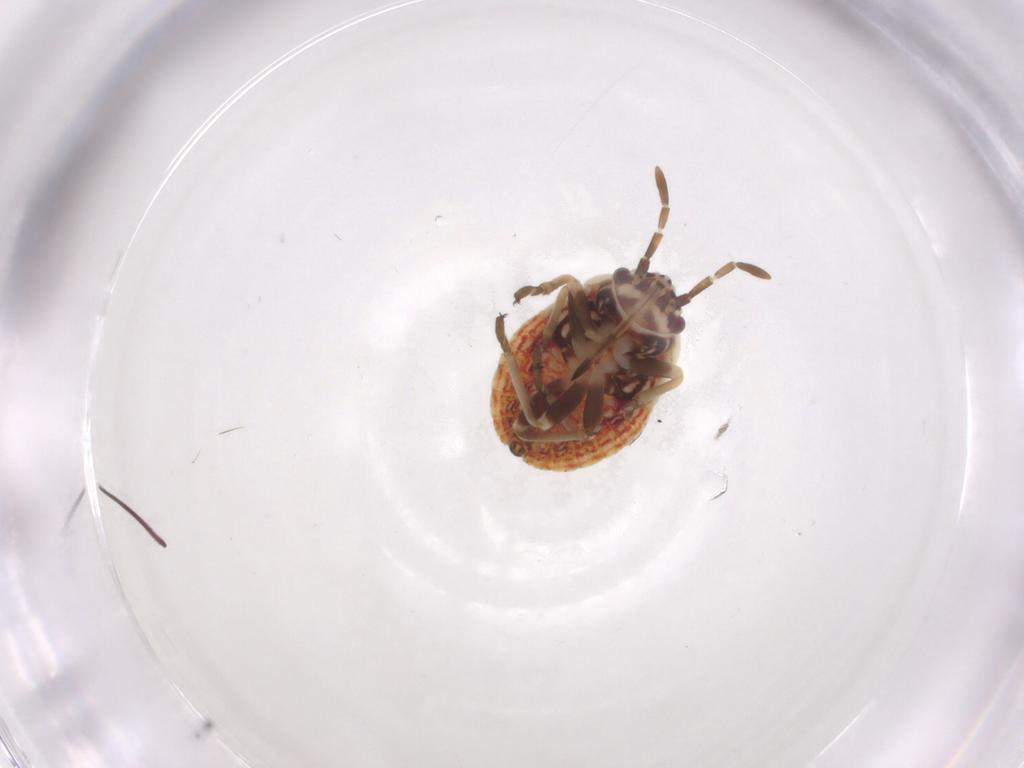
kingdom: Animalia
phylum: Arthropoda
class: Insecta
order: Hemiptera
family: Lygaeidae
